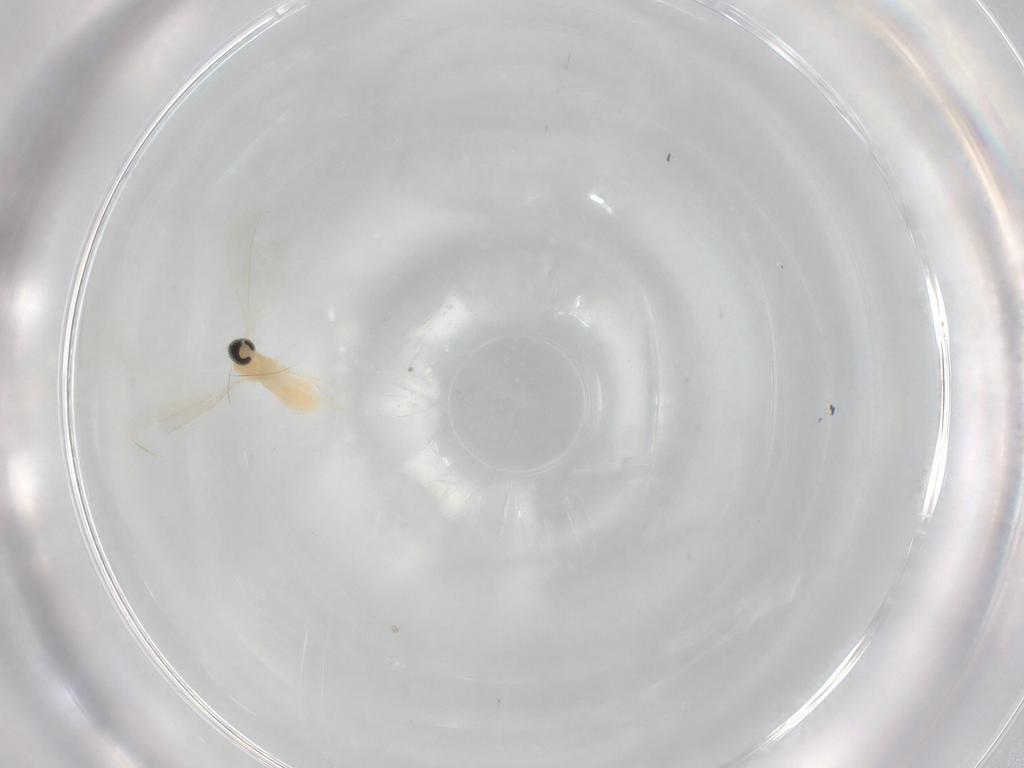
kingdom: Animalia
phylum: Arthropoda
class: Insecta
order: Diptera
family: Cecidomyiidae
